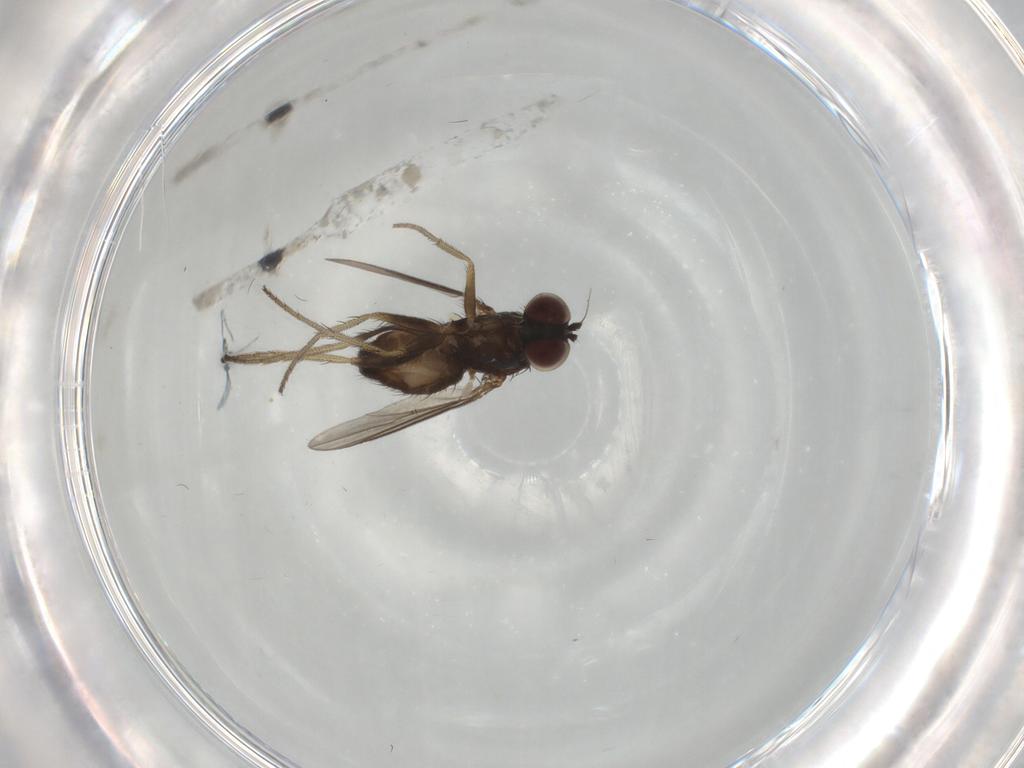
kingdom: Animalia
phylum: Arthropoda
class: Insecta
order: Diptera
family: Dolichopodidae
